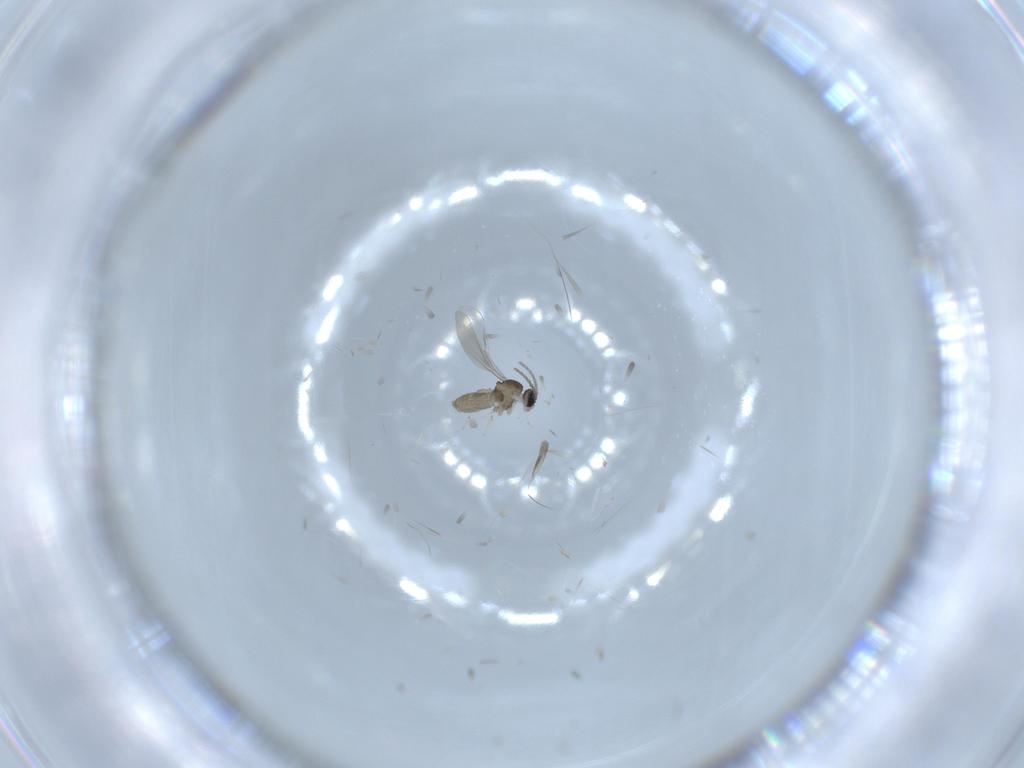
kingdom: Animalia
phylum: Arthropoda
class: Insecta
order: Diptera
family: Cecidomyiidae
